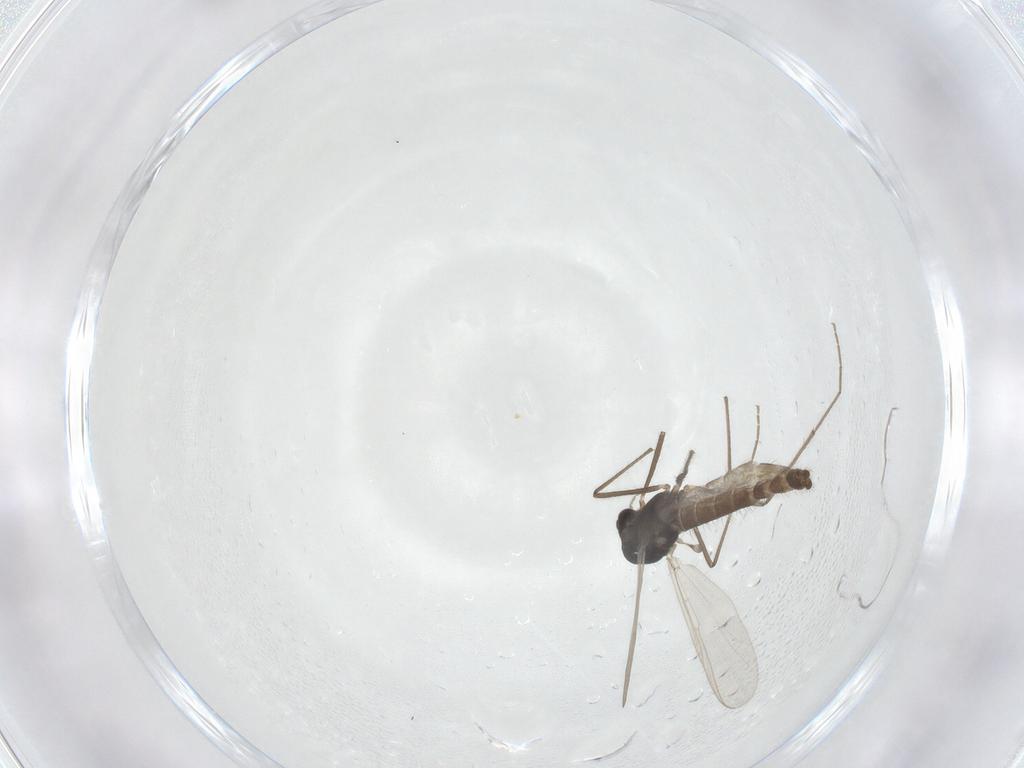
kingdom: Animalia
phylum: Arthropoda
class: Insecta
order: Diptera
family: Chironomidae
